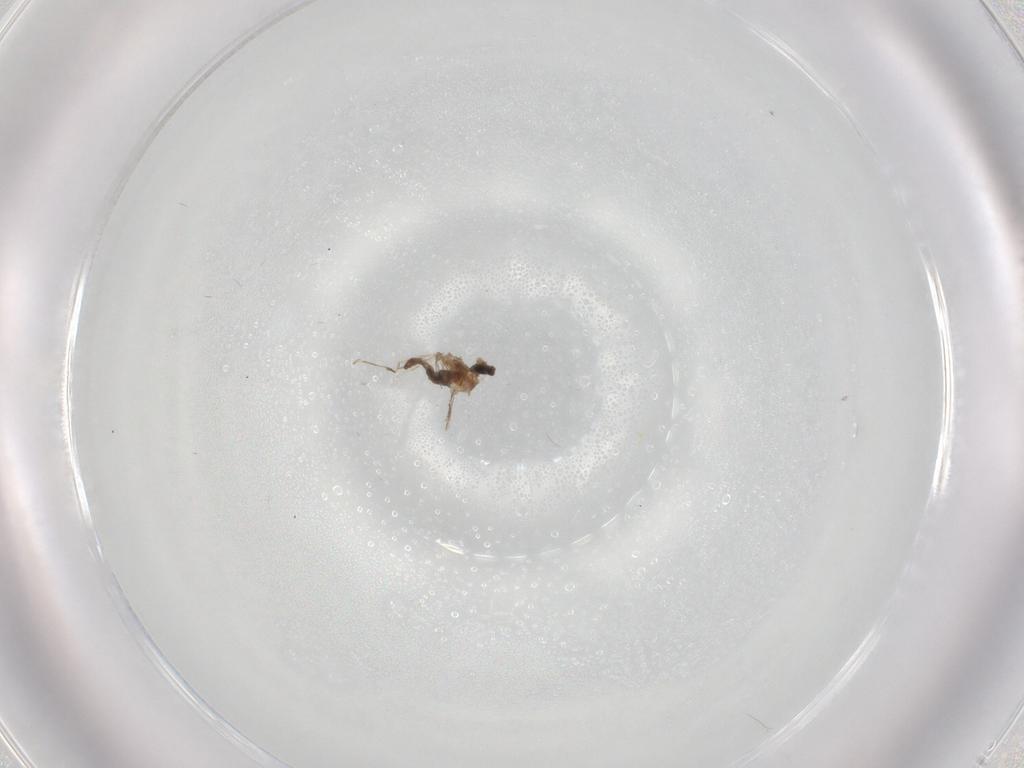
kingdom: Animalia
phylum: Arthropoda
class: Insecta
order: Diptera
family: Cecidomyiidae
